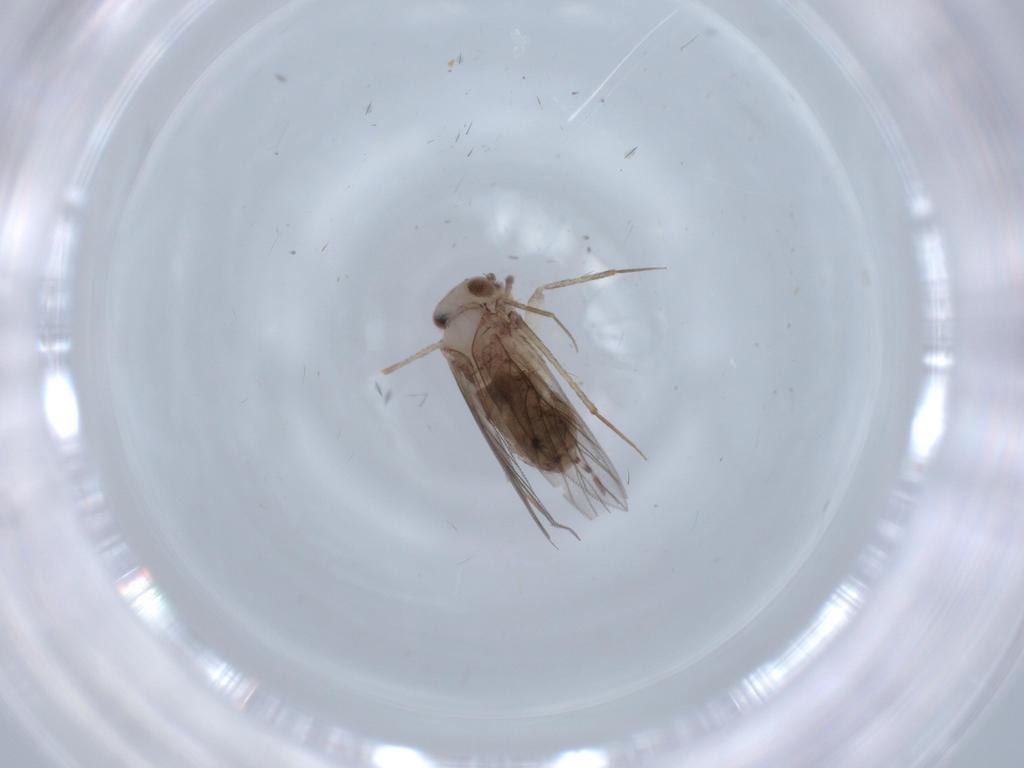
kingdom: Animalia
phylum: Arthropoda
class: Insecta
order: Psocodea
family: Lepidopsocidae
